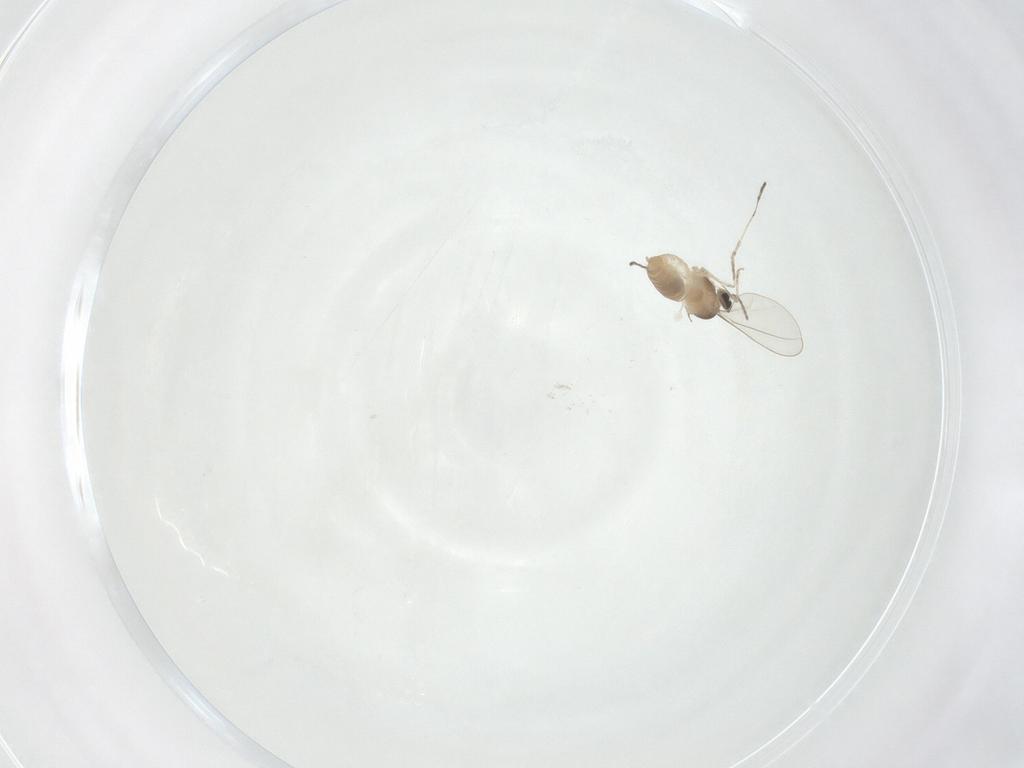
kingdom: Animalia
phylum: Arthropoda
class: Insecta
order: Diptera
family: Cecidomyiidae
